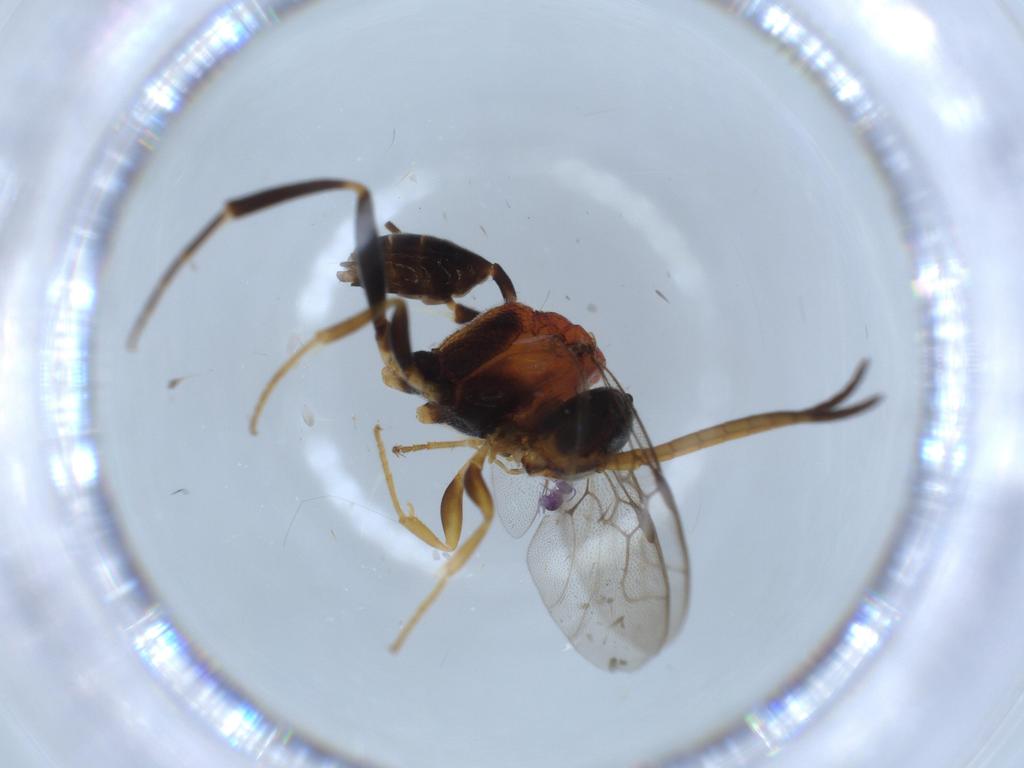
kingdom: Animalia
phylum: Arthropoda
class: Insecta
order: Hymenoptera
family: Evaniidae
